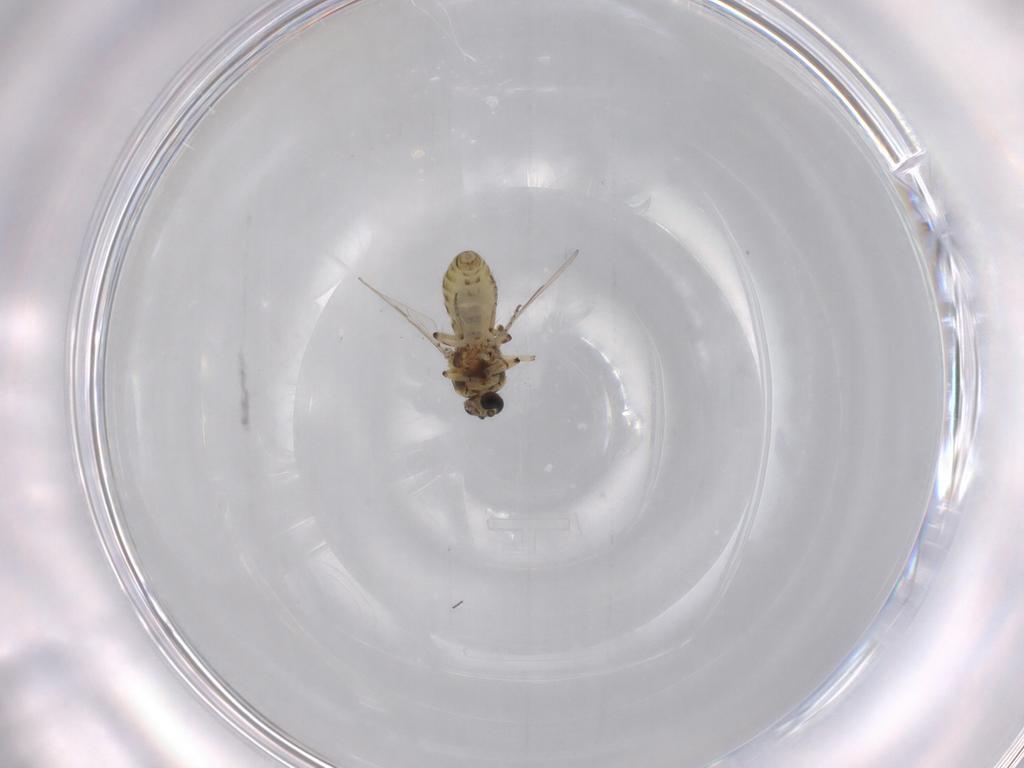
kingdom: Animalia
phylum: Arthropoda
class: Insecta
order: Diptera
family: Ceratopogonidae
